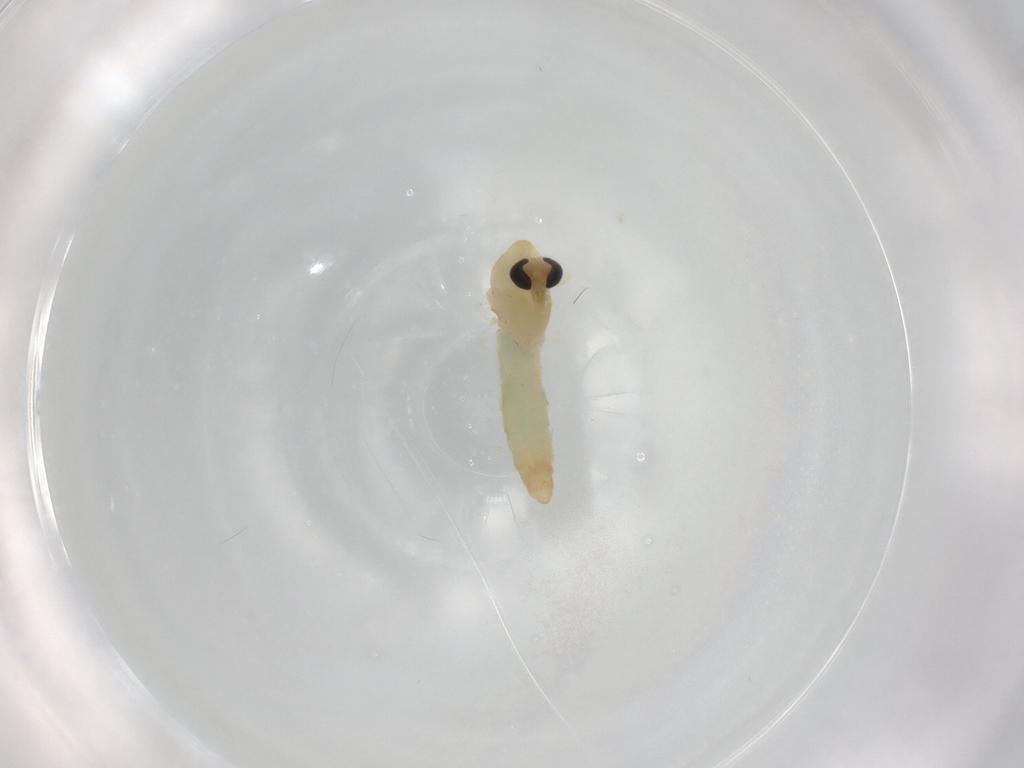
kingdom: Animalia
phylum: Arthropoda
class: Insecta
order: Diptera
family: Chironomidae
